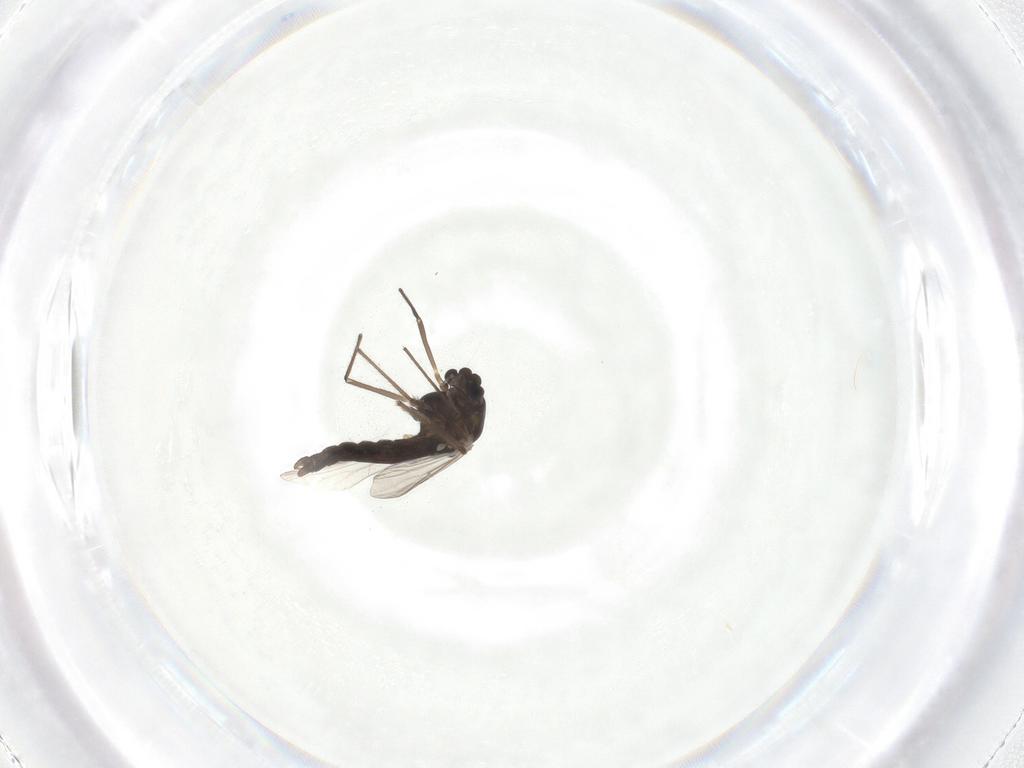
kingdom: Animalia
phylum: Arthropoda
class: Insecta
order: Diptera
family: Chironomidae
